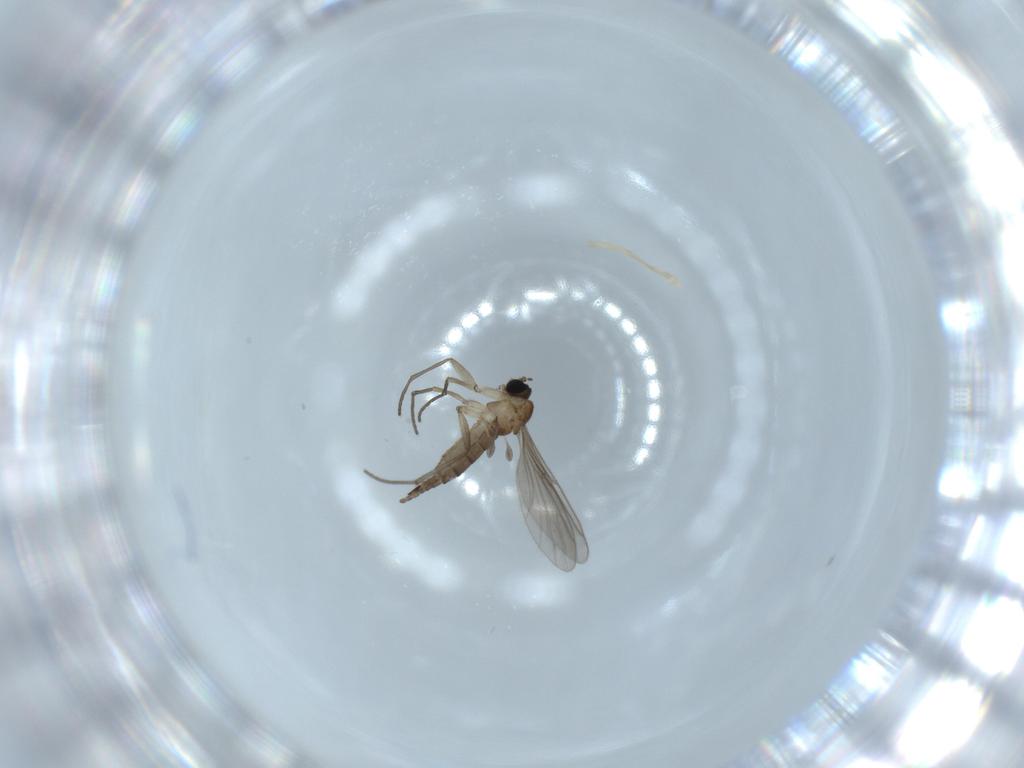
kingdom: Animalia
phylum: Arthropoda
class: Insecta
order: Diptera
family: Sciaridae
